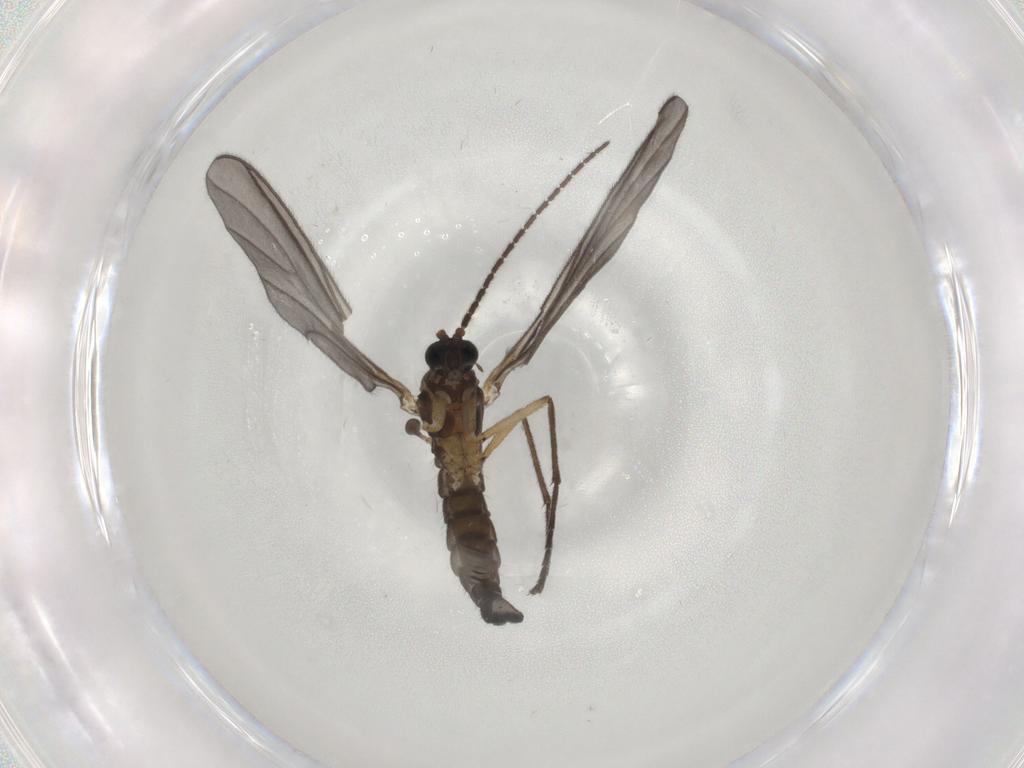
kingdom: Animalia
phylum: Arthropoda
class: Insecta
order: Diptera
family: Sciaridae
